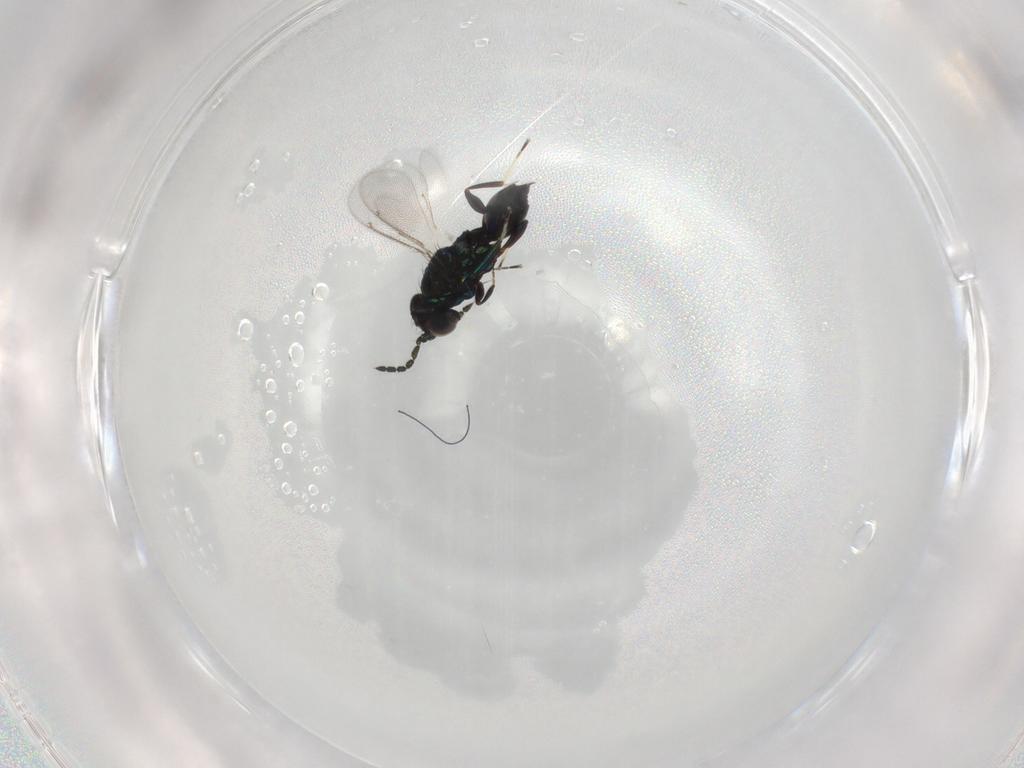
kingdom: Animalia
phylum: Arthropoda
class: Insecta
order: Hymenoptera
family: Eulophidae
